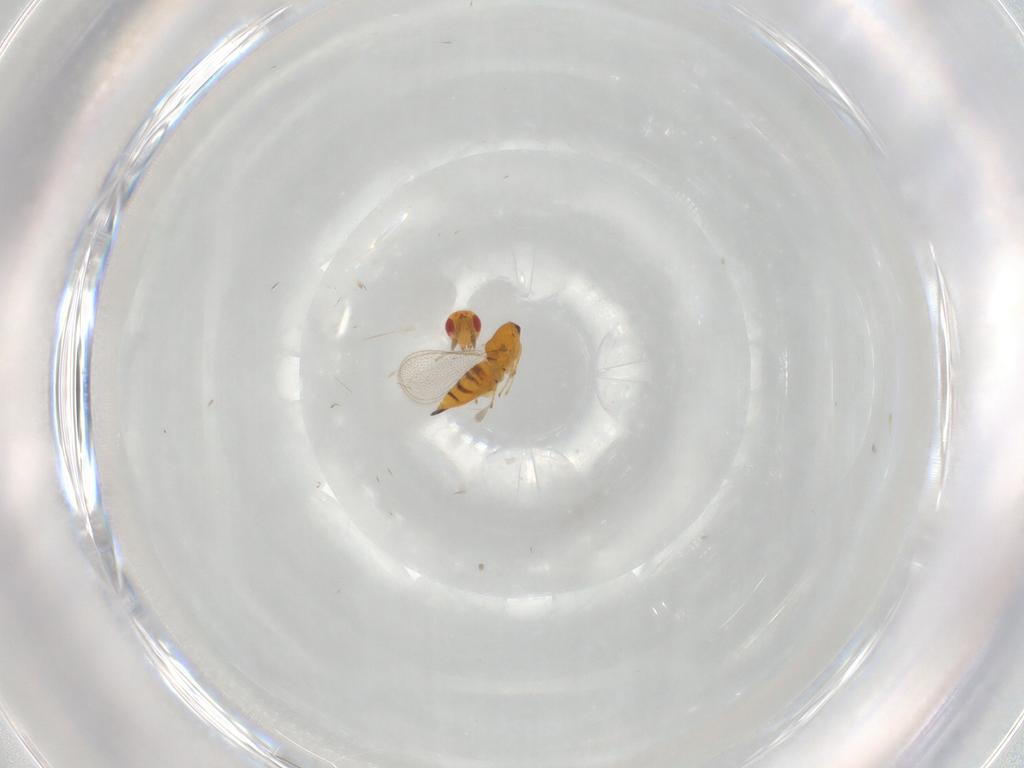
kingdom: Animalia
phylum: Arthropoda
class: Insecta
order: Hymenoptera
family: Eulophidae
